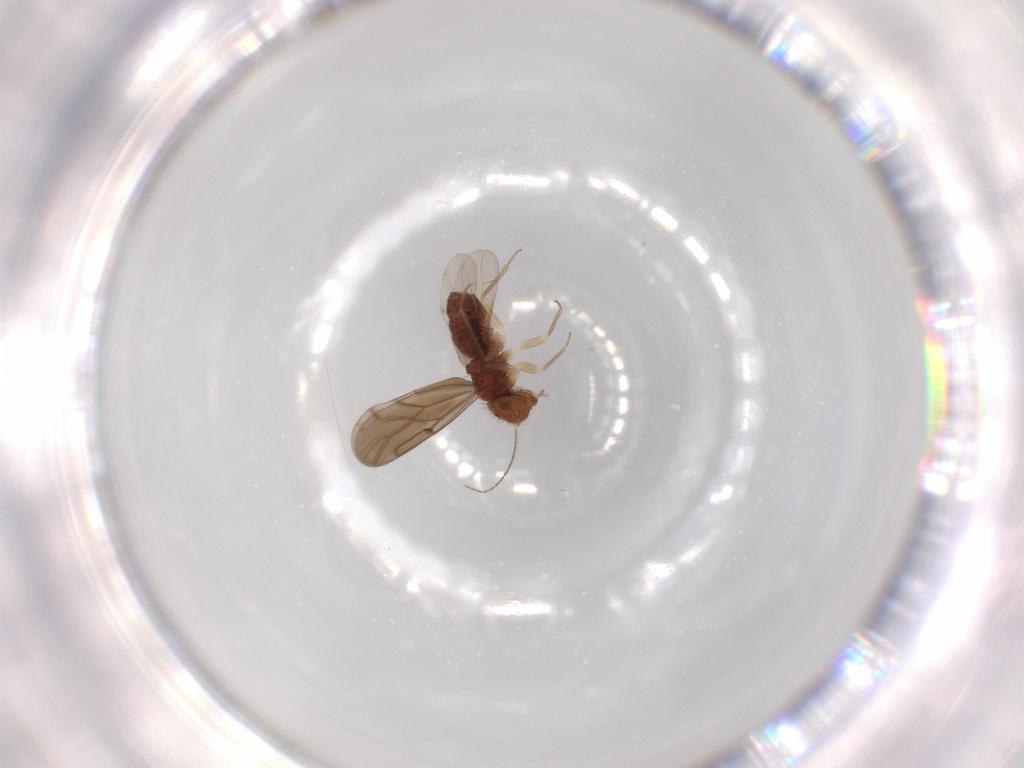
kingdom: Animalia
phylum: Arthropoda
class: Insecta
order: Psocodea
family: Ectopsocidae
